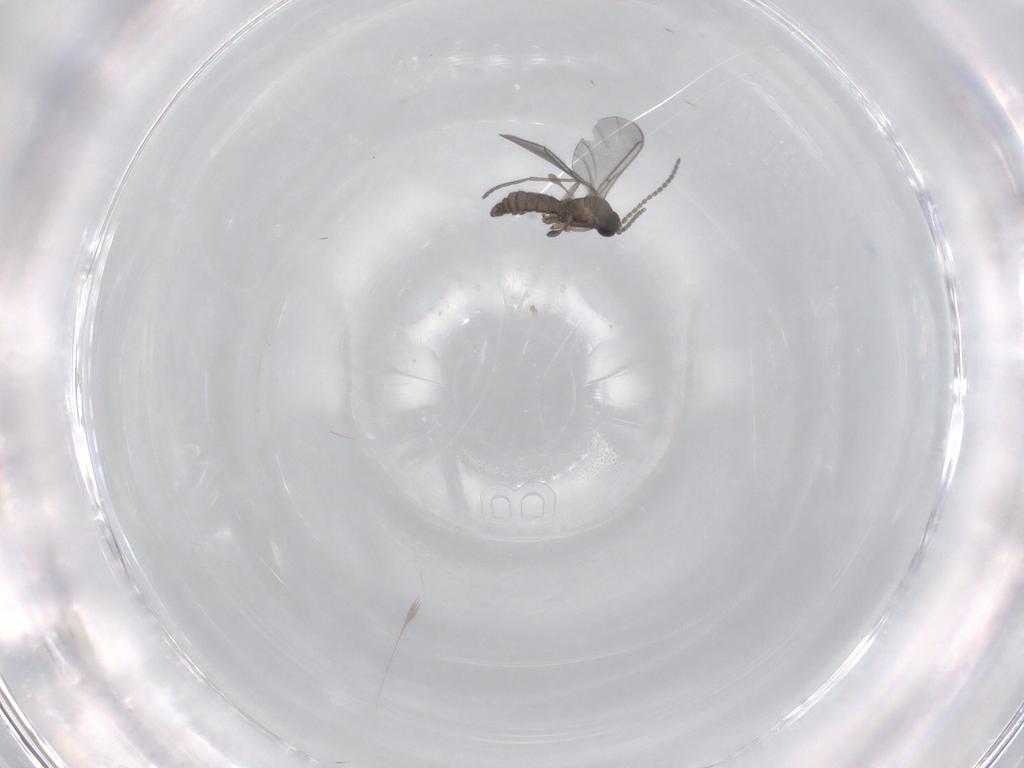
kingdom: Animalia
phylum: Arthropoda
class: Insecta
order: Diptera
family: Sciaridae
